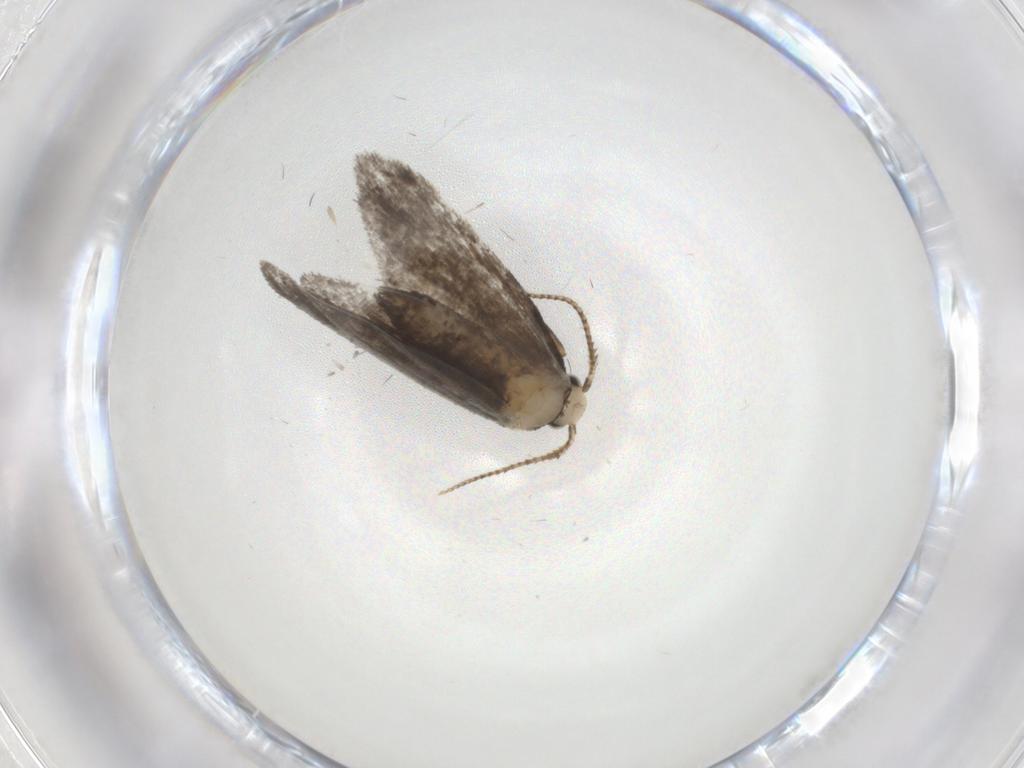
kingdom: Animalia
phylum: Arthropoda
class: Insecta
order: Lepidoptera
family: Psychidae
